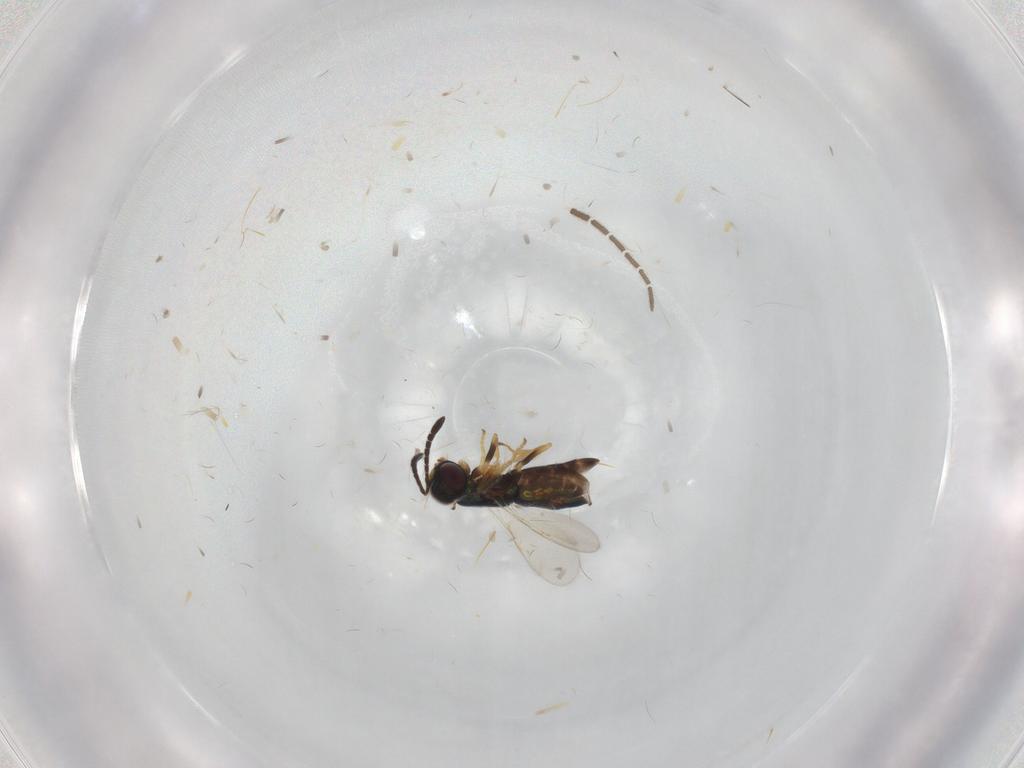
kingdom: Animalia
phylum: Arthropoda
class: Insecta
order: Hymenoptera
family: Encyrtidae
